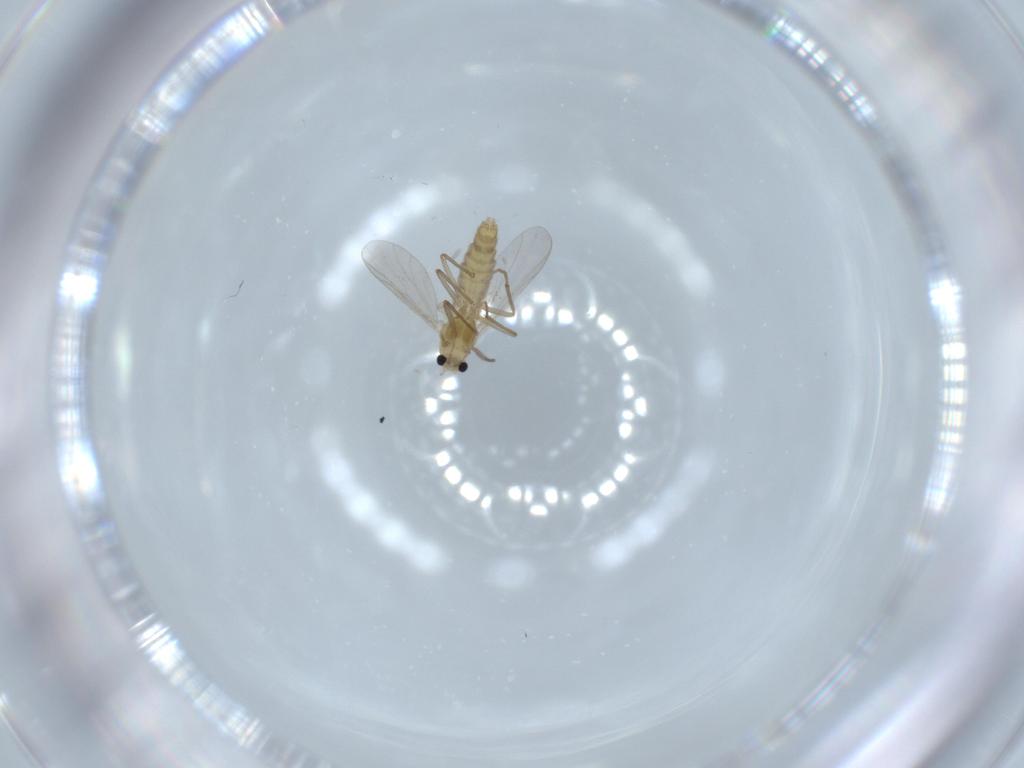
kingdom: Animalia
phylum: Arthropoda
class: Insecta
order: Diptera
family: Chironomidae
